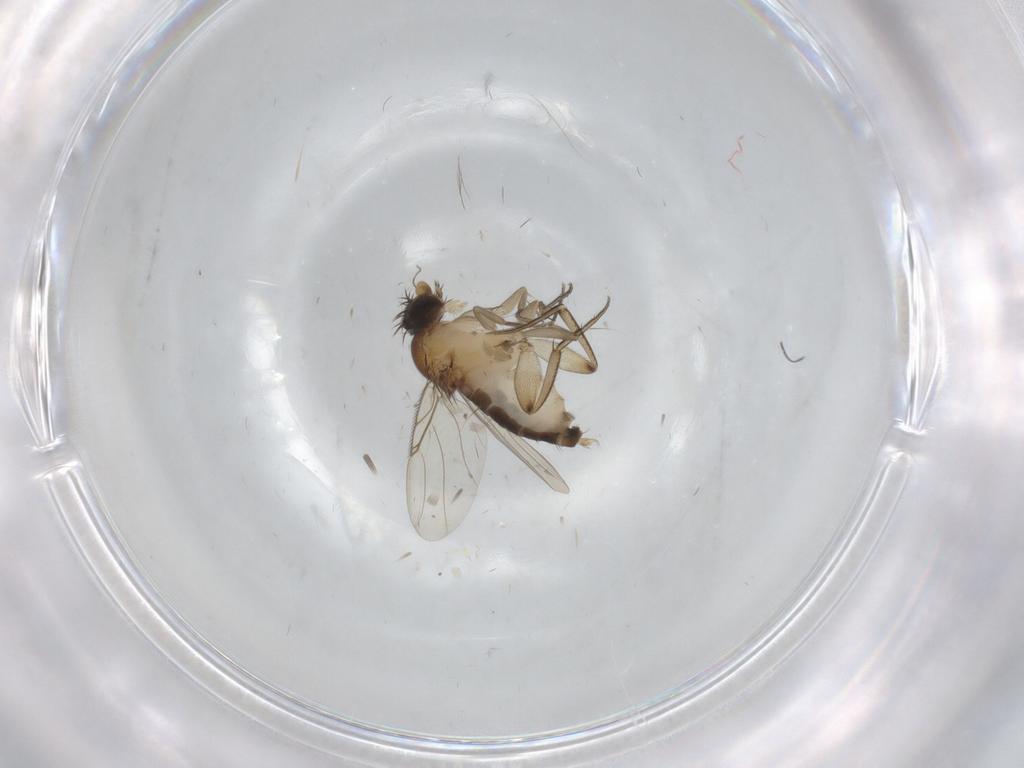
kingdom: Animalia
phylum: Arthropoda
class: Insecta
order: Diptera
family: Phoridae
